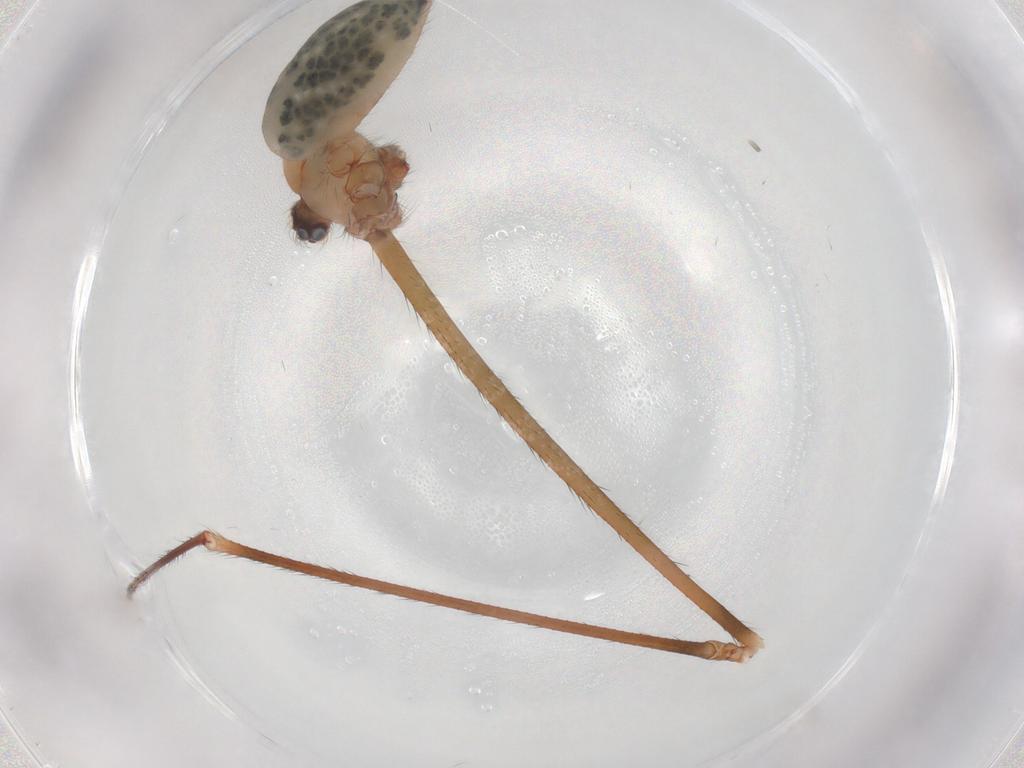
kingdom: Animalia
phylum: Arthropoda
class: Arachnida
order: Araneae
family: Pholcidae
